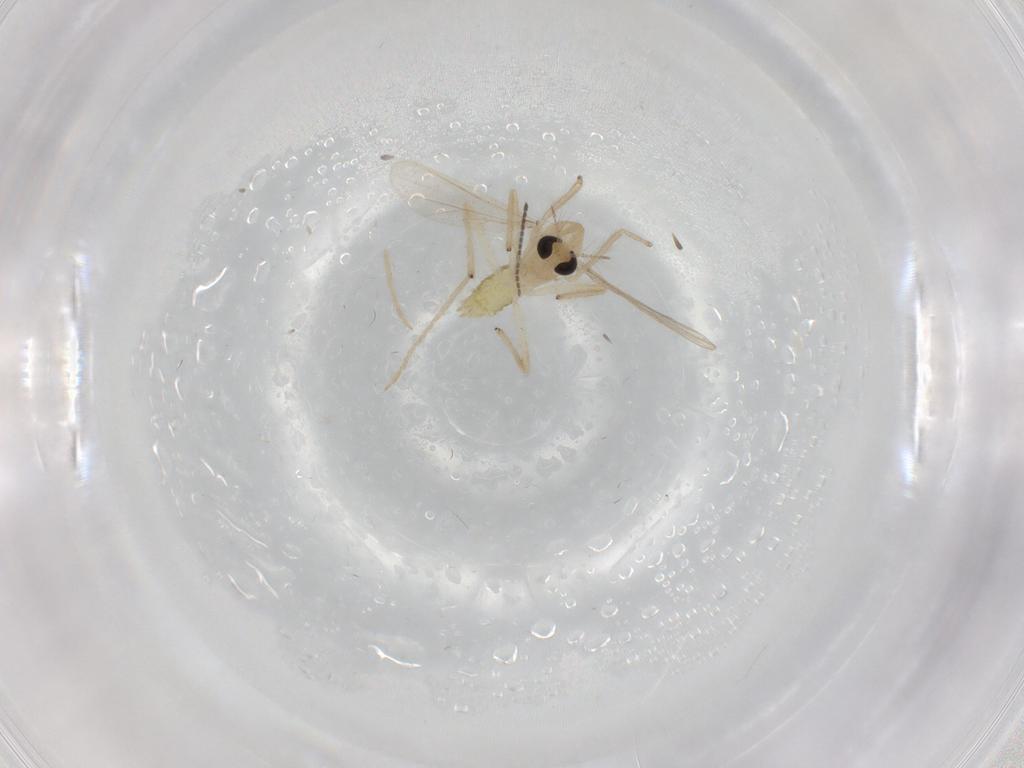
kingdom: Animalia
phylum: Arthropoda
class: Insecta
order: Diptera
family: Chironomidae
